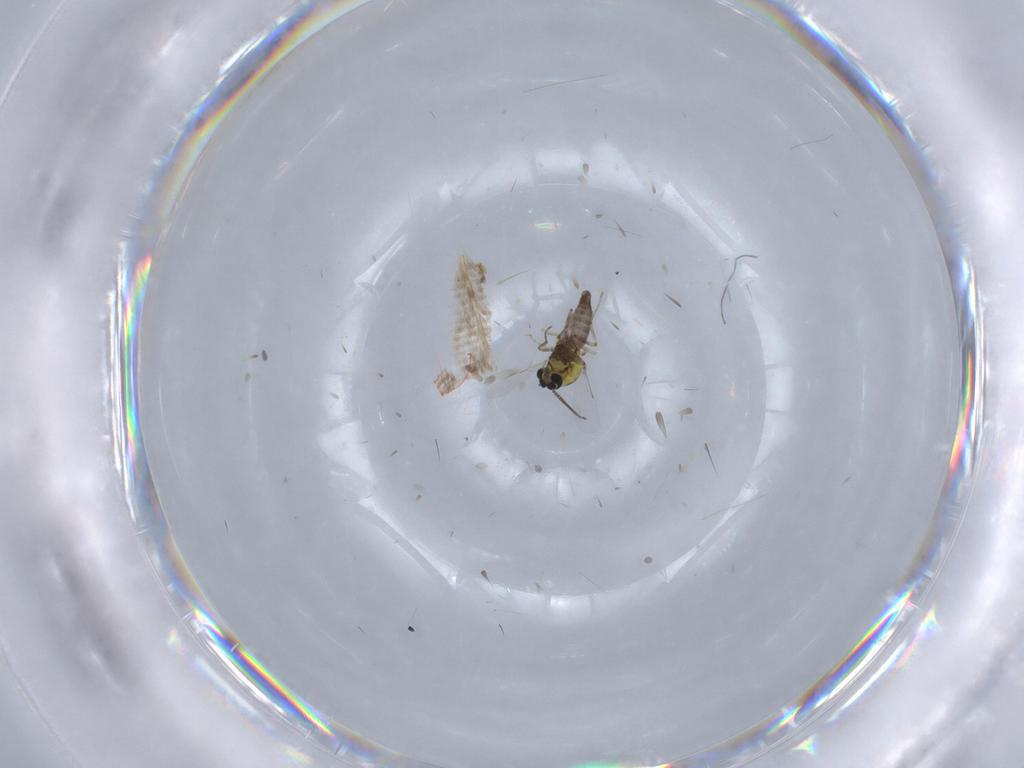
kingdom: Animalia
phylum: Arthropoda
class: Insecta
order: Diptera
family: Ceratopogonidae
